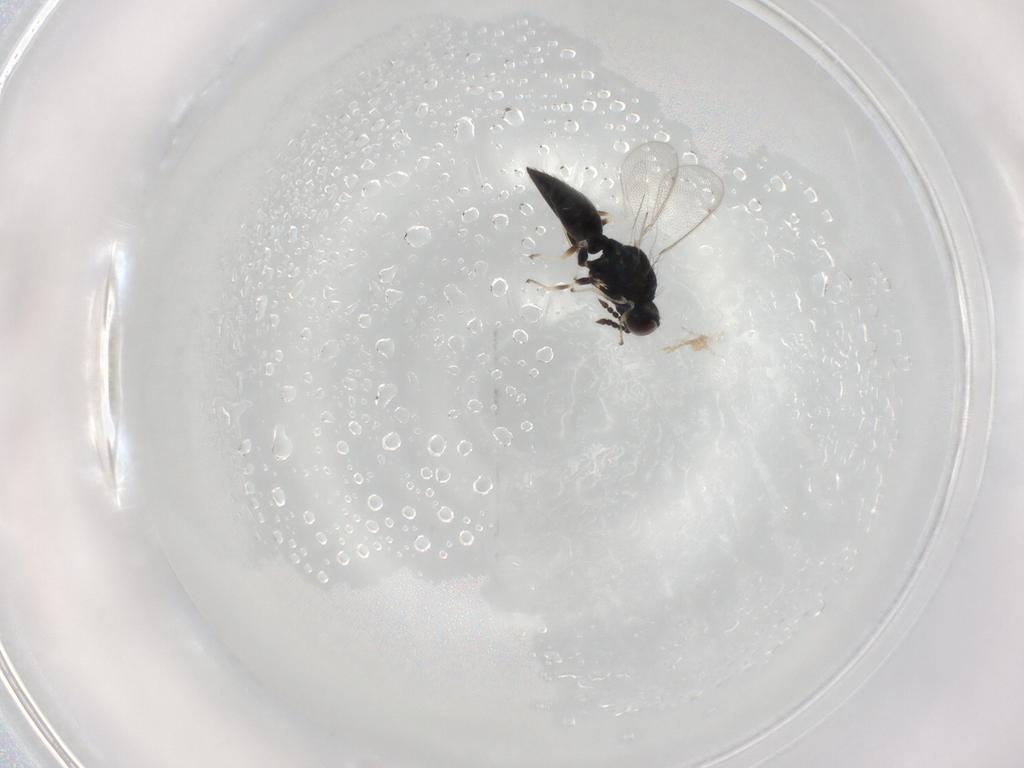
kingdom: Animalia
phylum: Arthropoda
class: Insecta
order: Hymenoptera
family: Eulophidae
